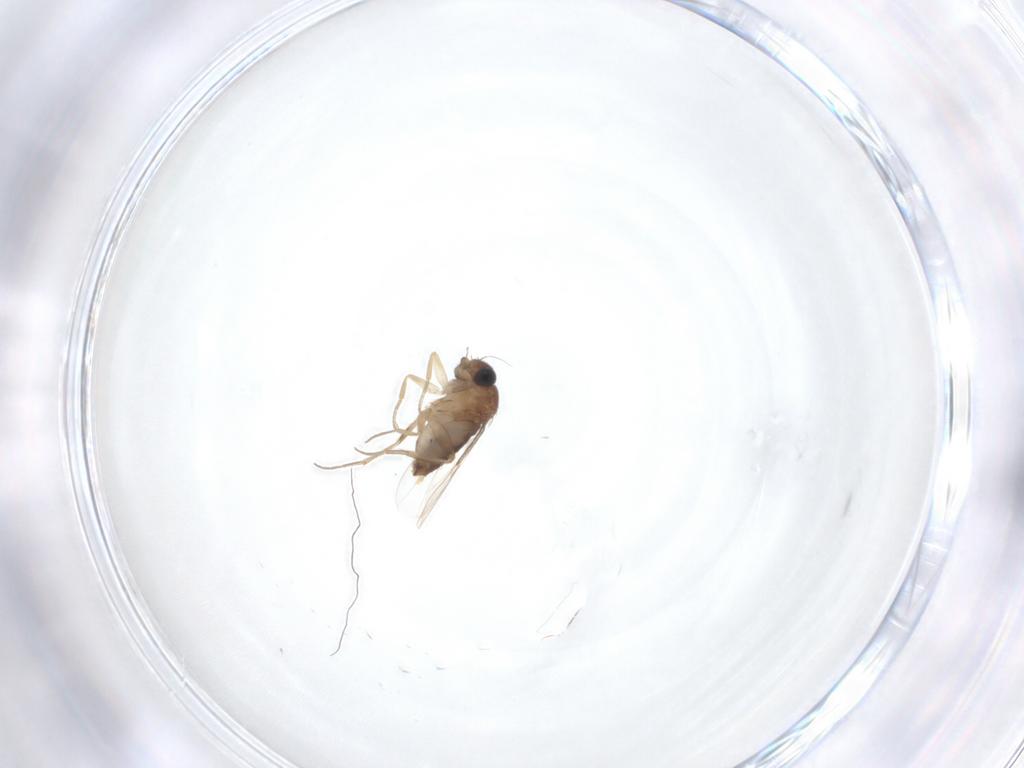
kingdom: Animalia
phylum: Arthropoda
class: Insecta
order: Diptera
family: Phoridae
